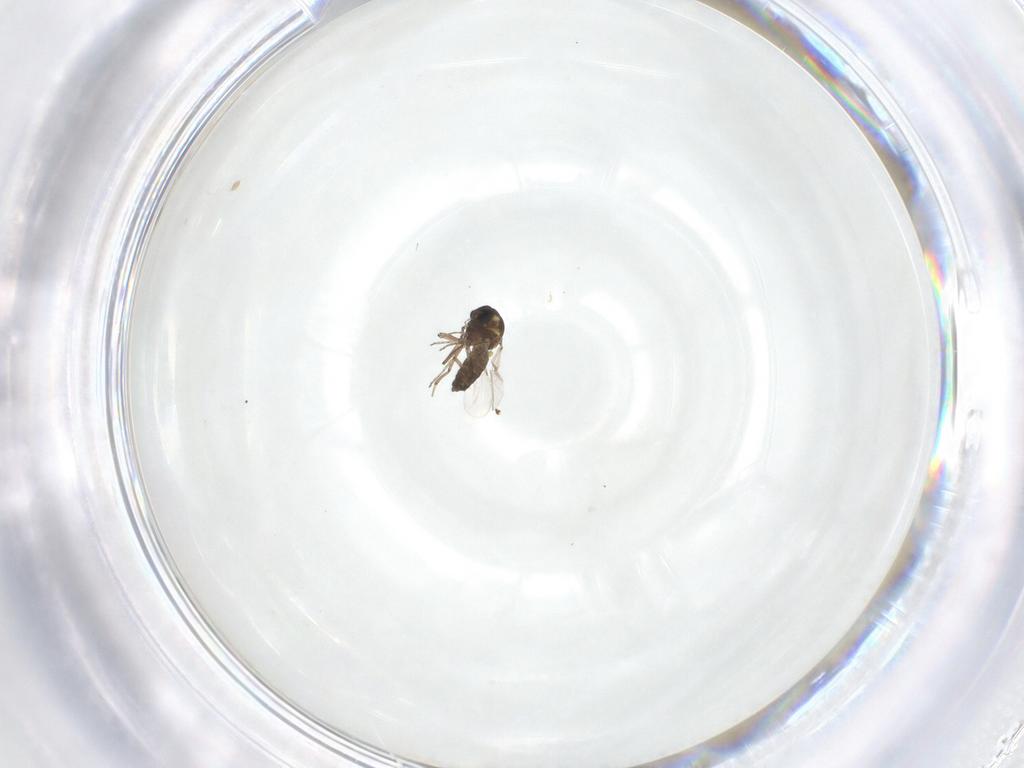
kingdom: Animalia
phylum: Arthropoda
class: Insecta
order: Diptera
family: Ceratopogonidae
